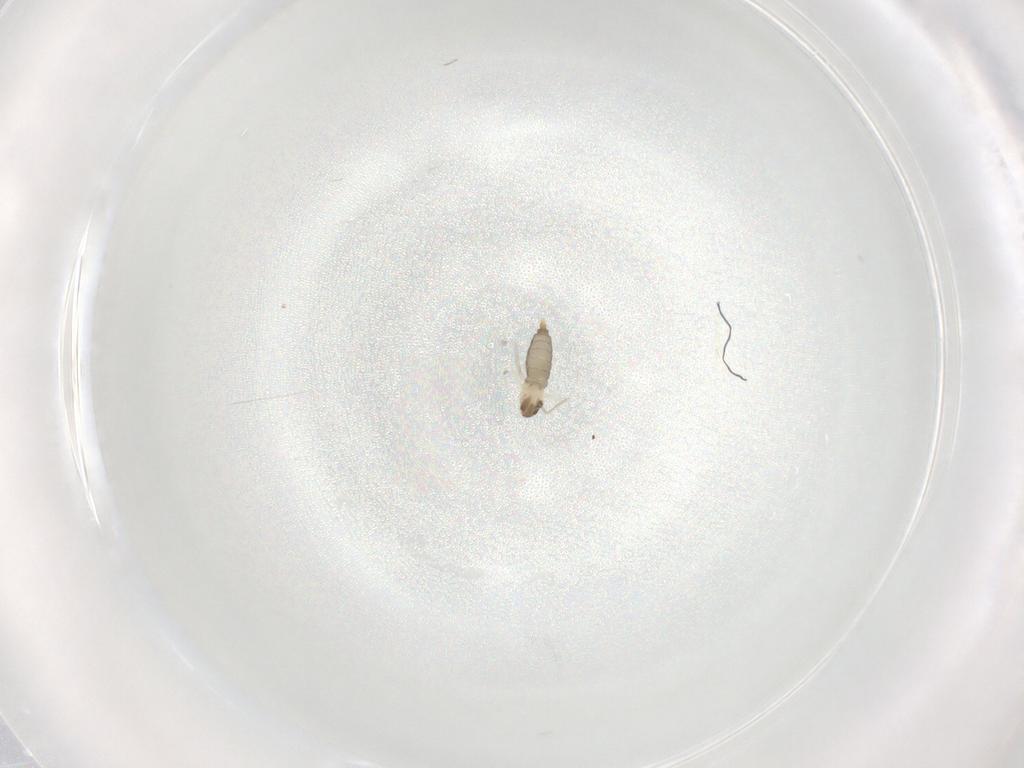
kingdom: Animalia
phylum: Arthropoda
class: Insecta
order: Diptera
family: Cecidomyiidae
